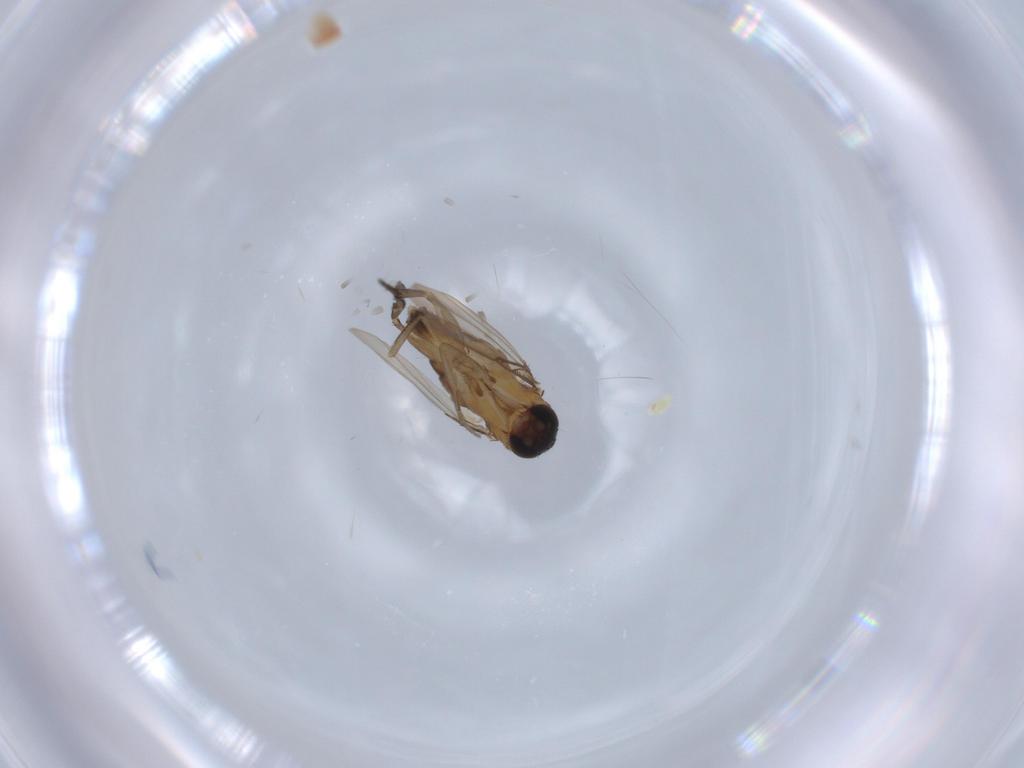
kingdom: Animalia
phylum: Arthropoda
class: Insecta
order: Diptera
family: Phoridae
